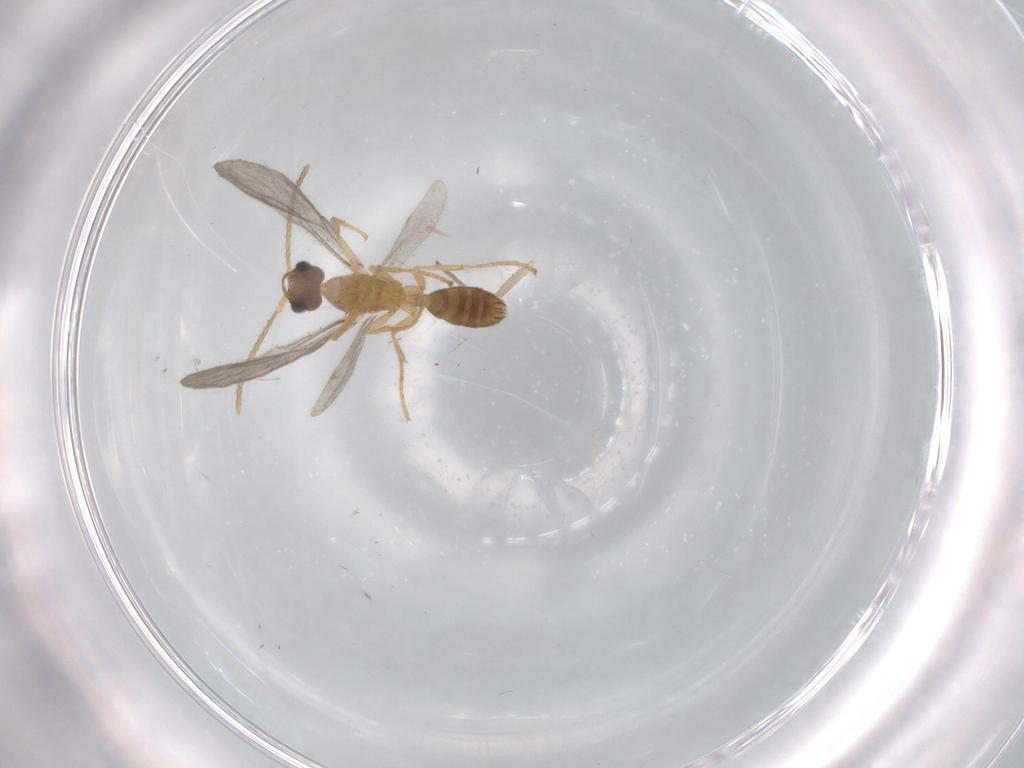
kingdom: Animalia
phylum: Arthropoda
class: Insecta
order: Hymenoptera
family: Formicidae
